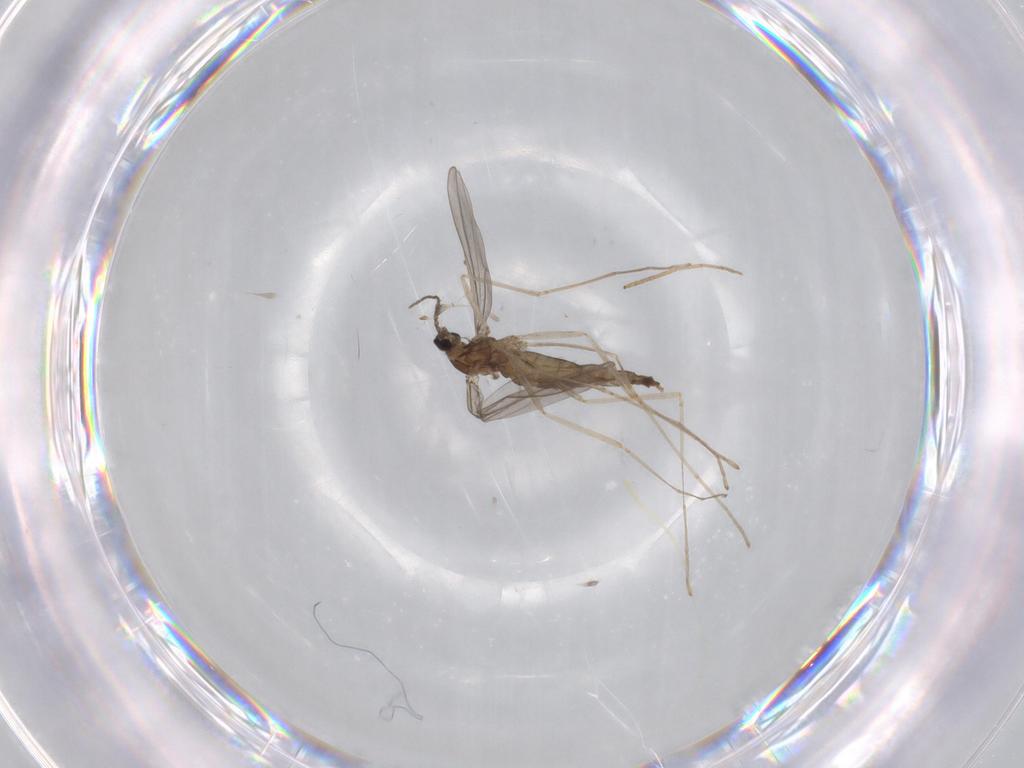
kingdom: Animalia
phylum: Arthropoda
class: Insecta
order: Diptera
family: Cecidomyiidae
